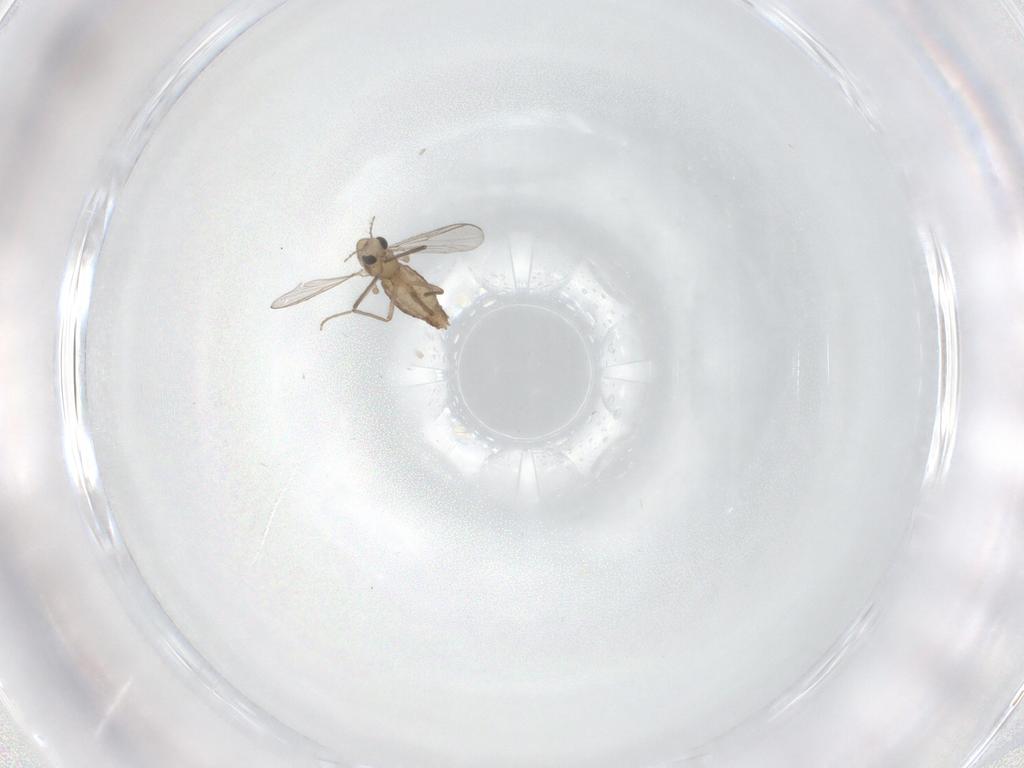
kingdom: Animalia
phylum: Arthropoda
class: Insecta
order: Diptera
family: Chironomidae
